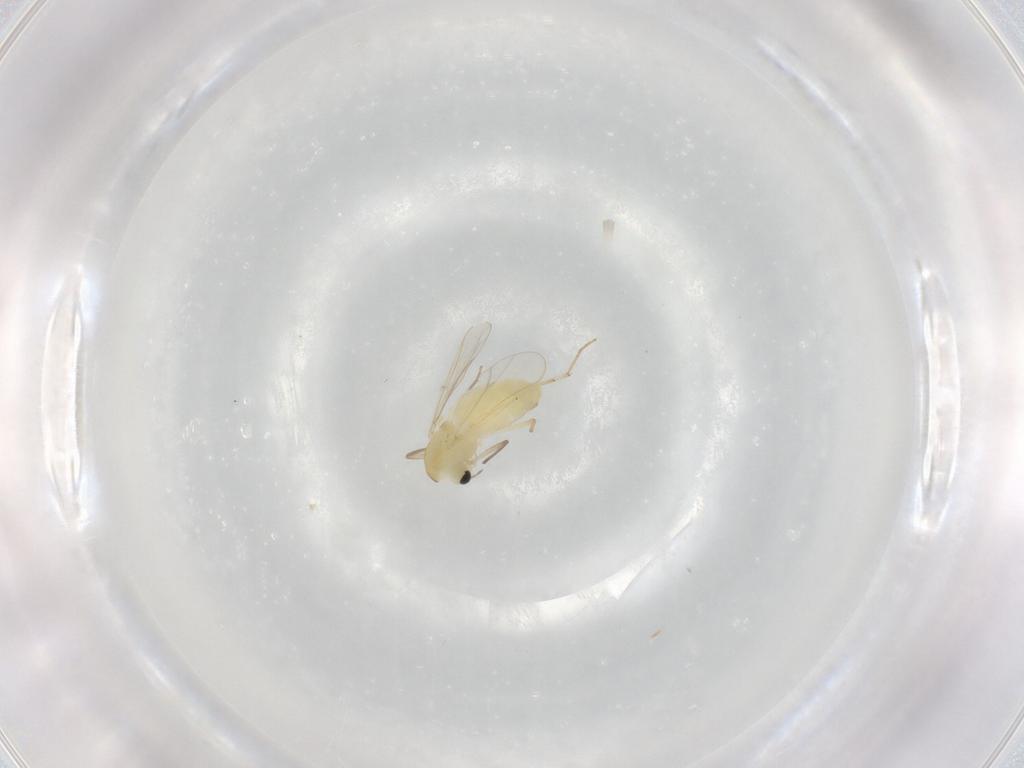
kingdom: Animalia
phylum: Arthropoda
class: Insecta
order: Diptera
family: Chironomidae
